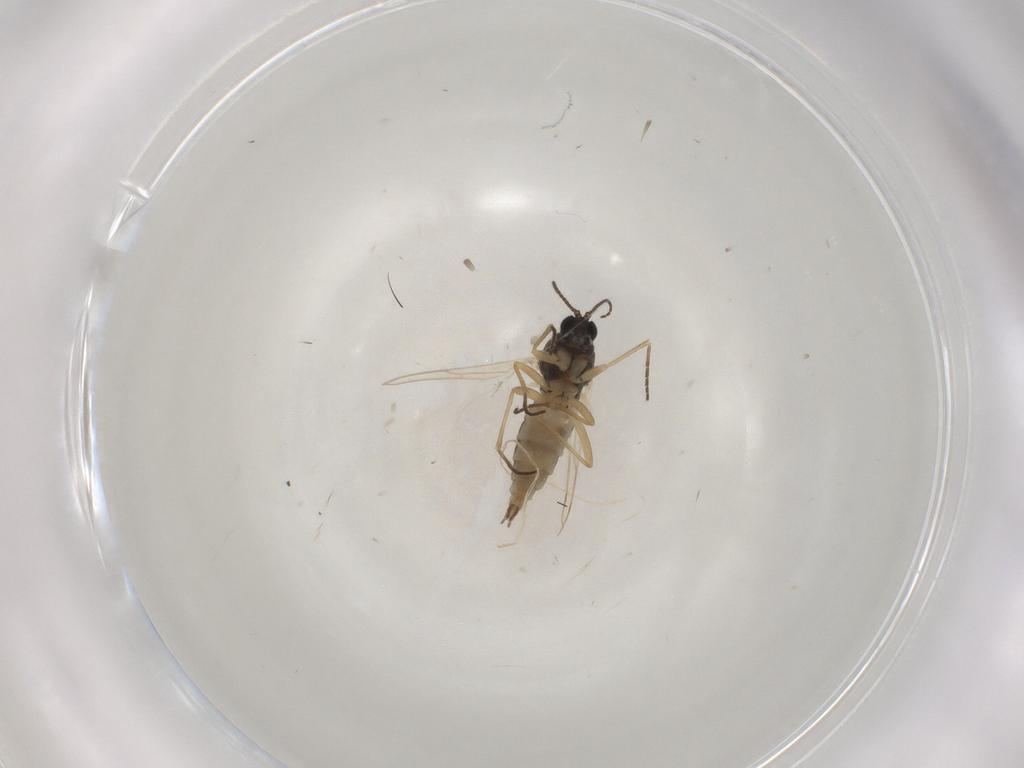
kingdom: Animalia
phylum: Arthropoda
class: Insecta
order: Diptera
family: Sciaridae
